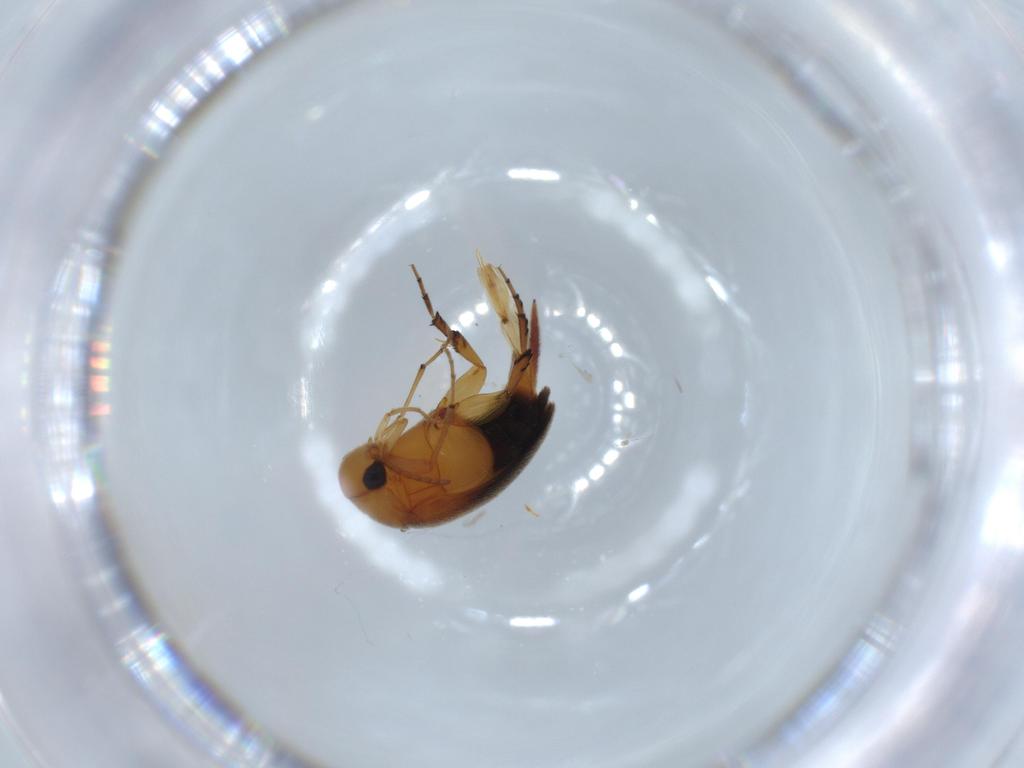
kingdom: Animalia
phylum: Arthropoda
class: Insecta
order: Coleoptera
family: Mordellidae
